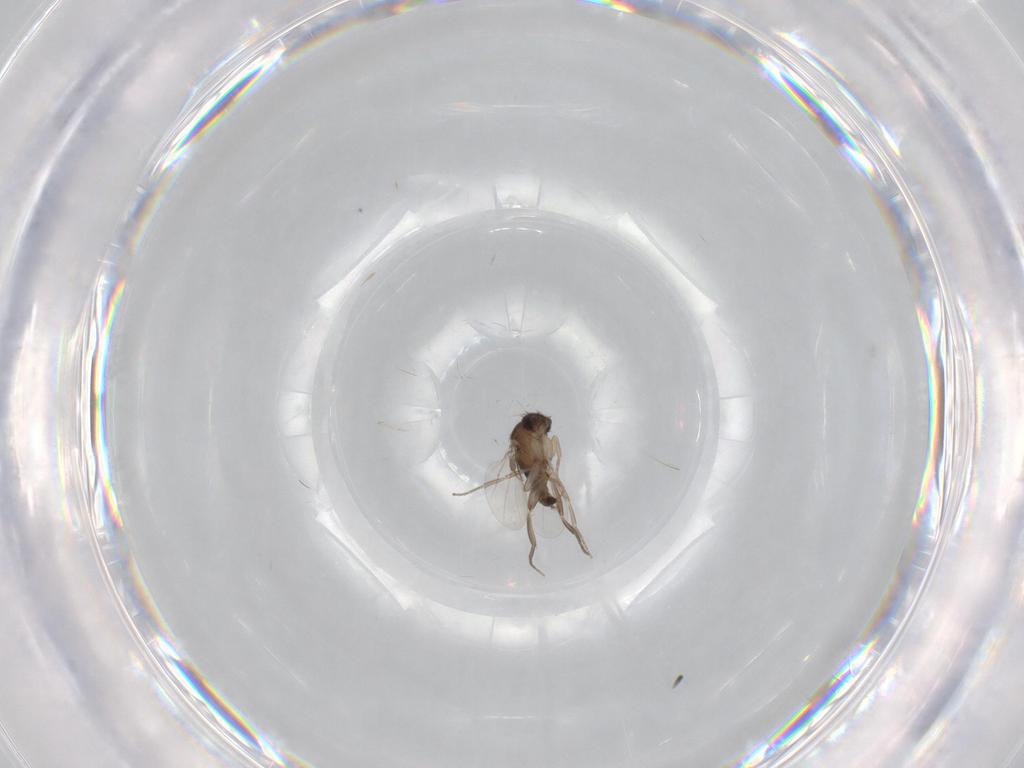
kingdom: Animalia
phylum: Arthropoda
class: Insecta
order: Diptera
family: Phoridae
